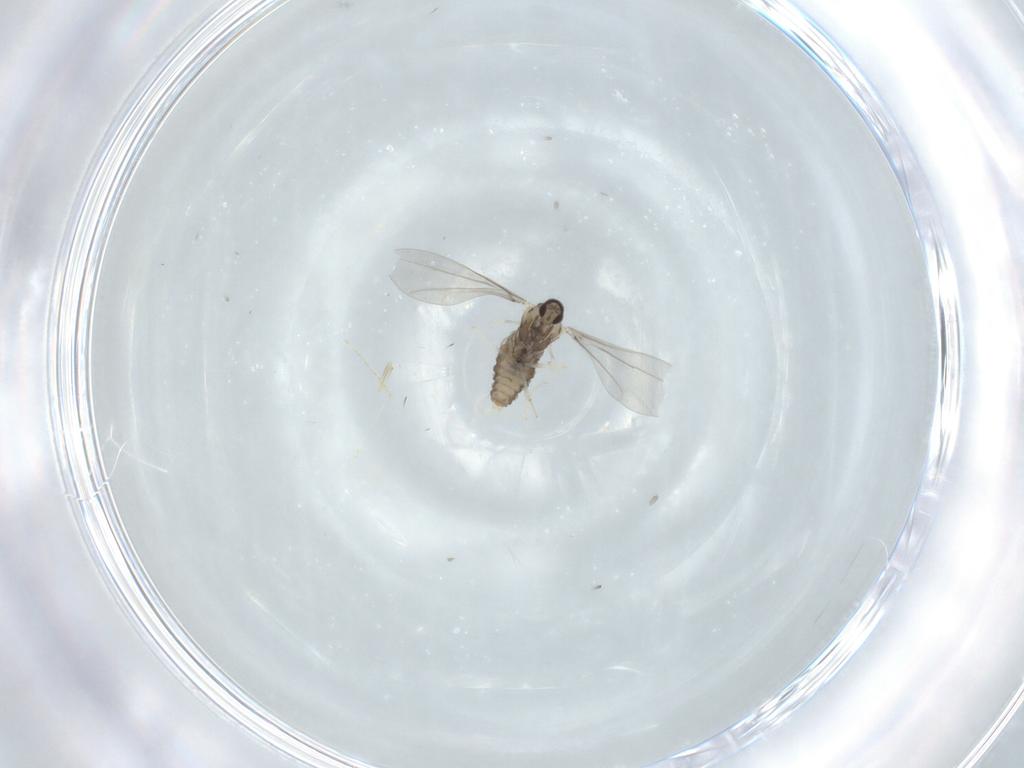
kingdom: Animalia
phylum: Arthropoda
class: Insecta
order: Diptera
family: Cecidomyiidae
